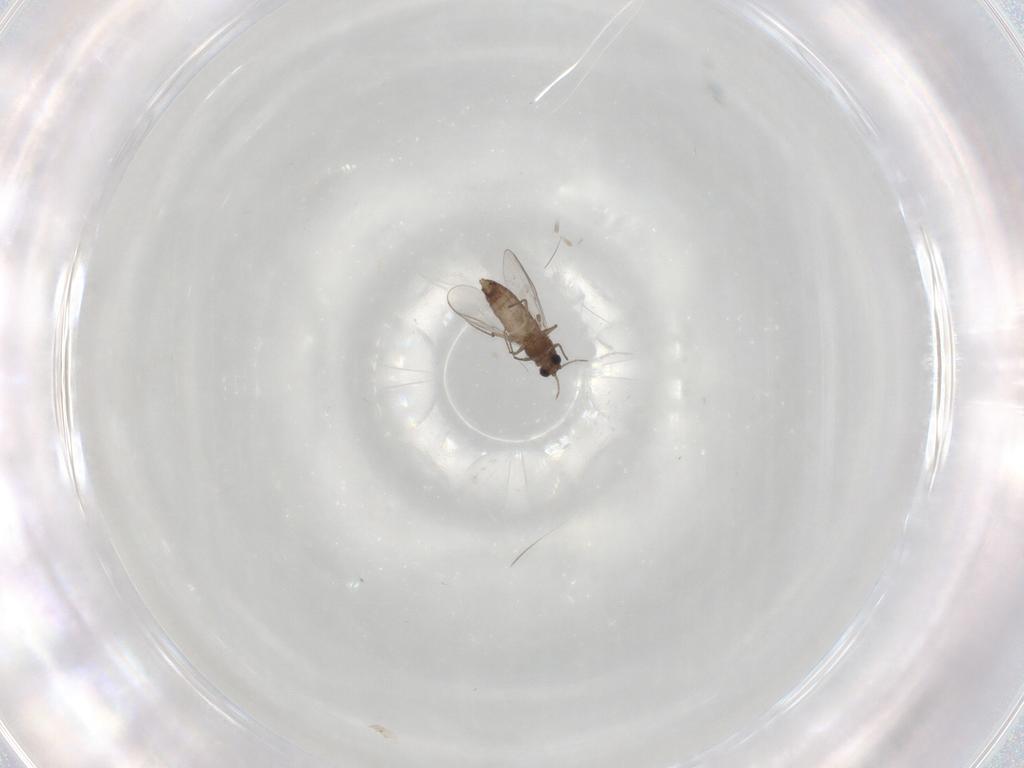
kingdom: Animalia
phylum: Arthropoda
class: Insecta
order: Diptera
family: Chironomidae
